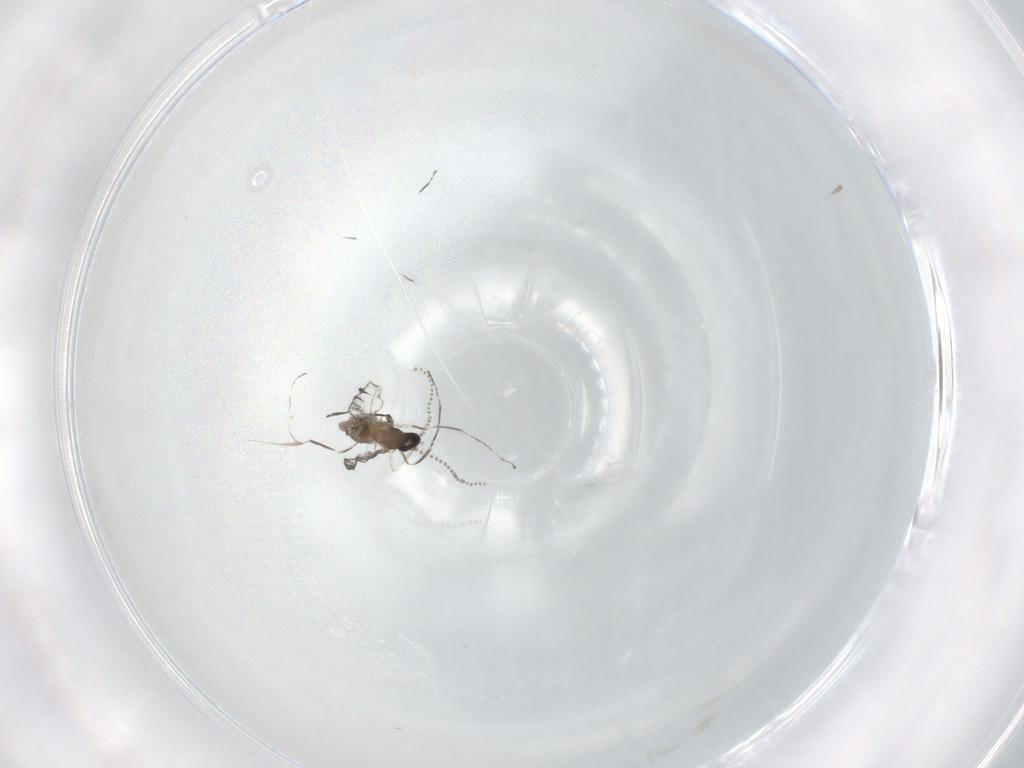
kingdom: Animalia
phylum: Arthropoda
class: Insecta
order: Diptera
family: Cecidomyiidae
